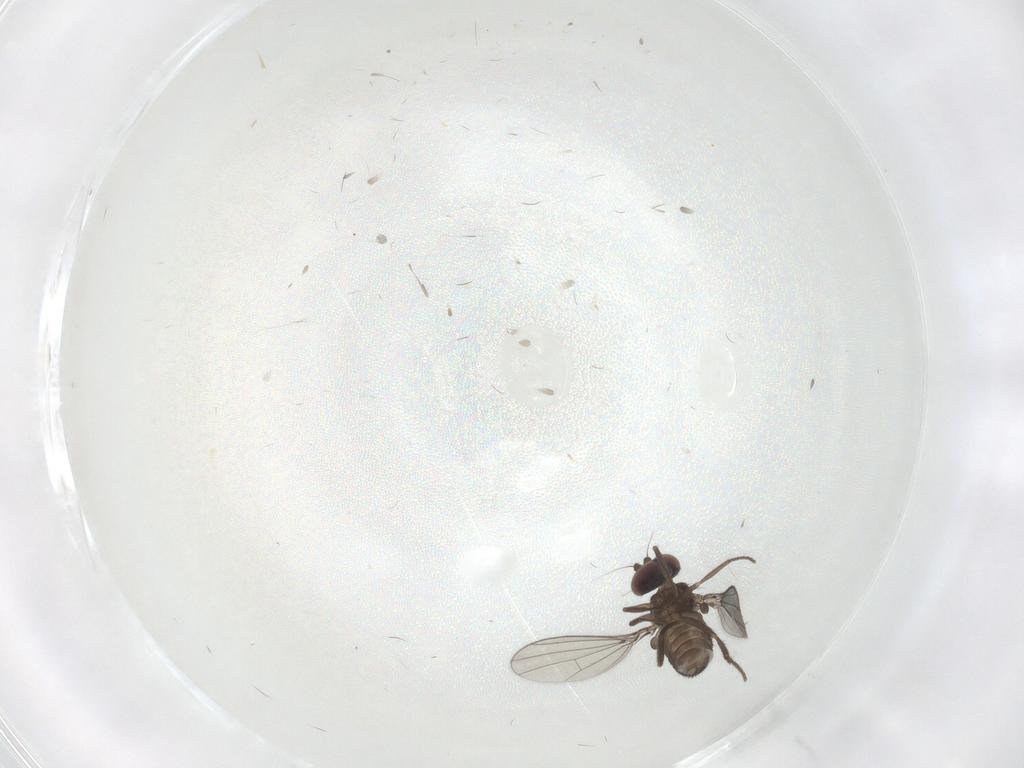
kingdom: Animalia
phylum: Arthropoda
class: Insecta
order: Diptera
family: Dolichopodidae
